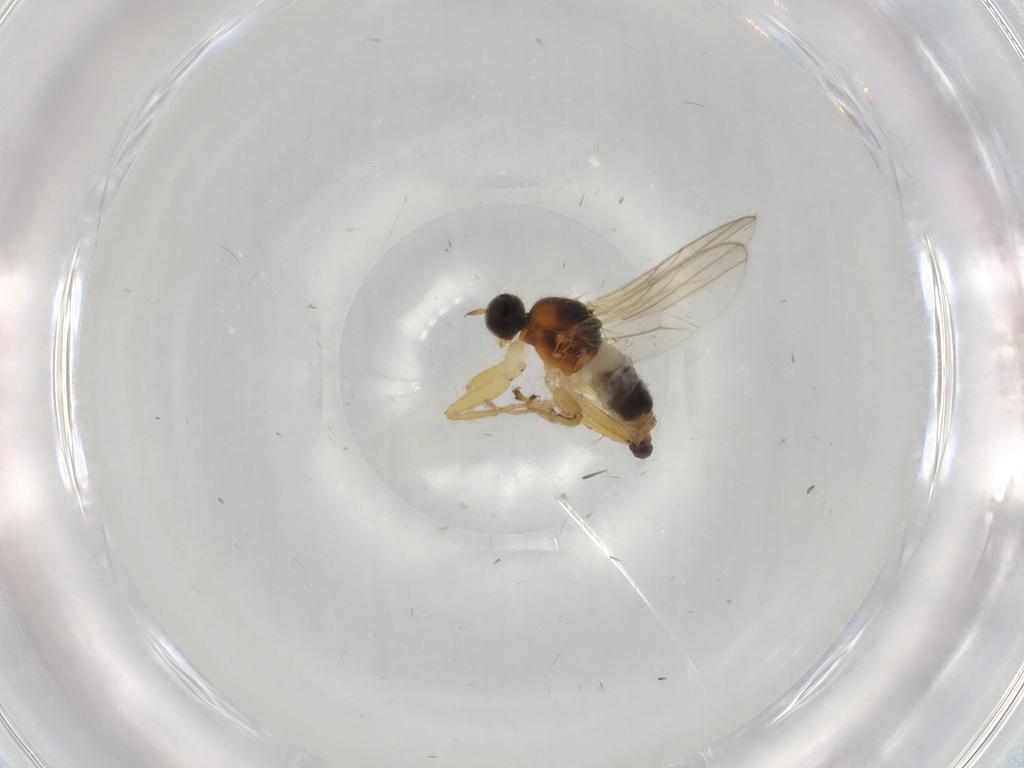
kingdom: Animalia
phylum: Arthropoda
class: Insecta
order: Diptera
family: Hybotidae
